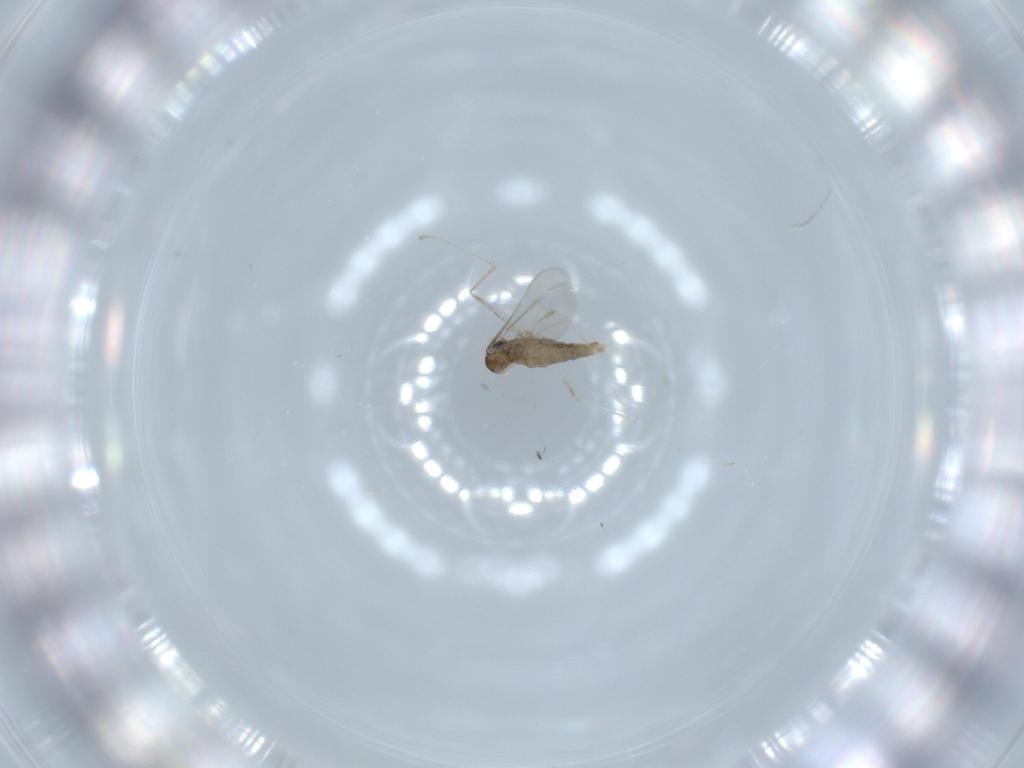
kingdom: Animalia
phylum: Arthropoda
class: Insecta
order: Diptera
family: Cecidomyiidae
